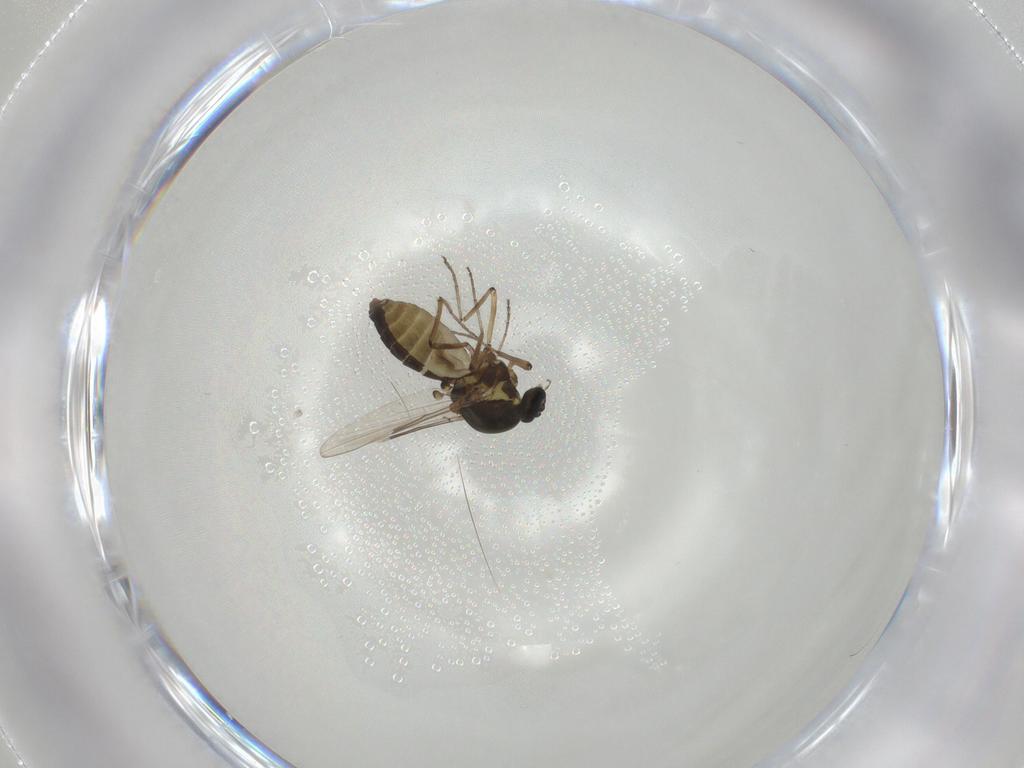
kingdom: Animalia
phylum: Arthropoda
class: Insecta
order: Diptera
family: Ceratopogonidae
